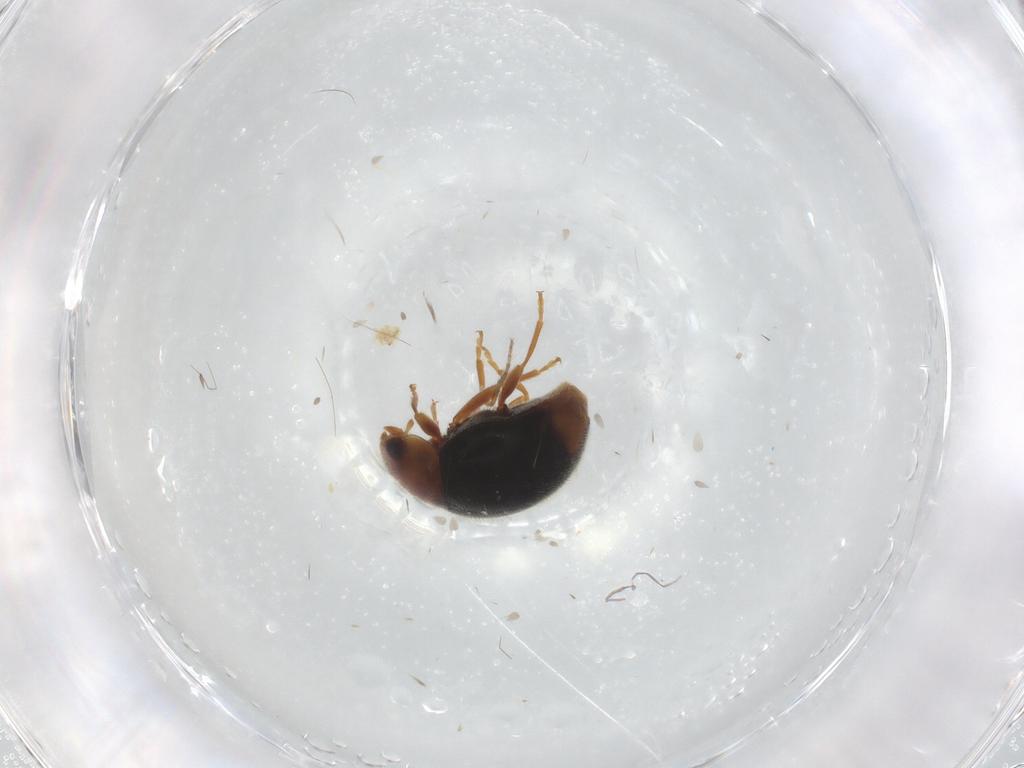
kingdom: Animalia
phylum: Arthropoda
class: Insecta
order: Coleoptera
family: Coccinellidae
